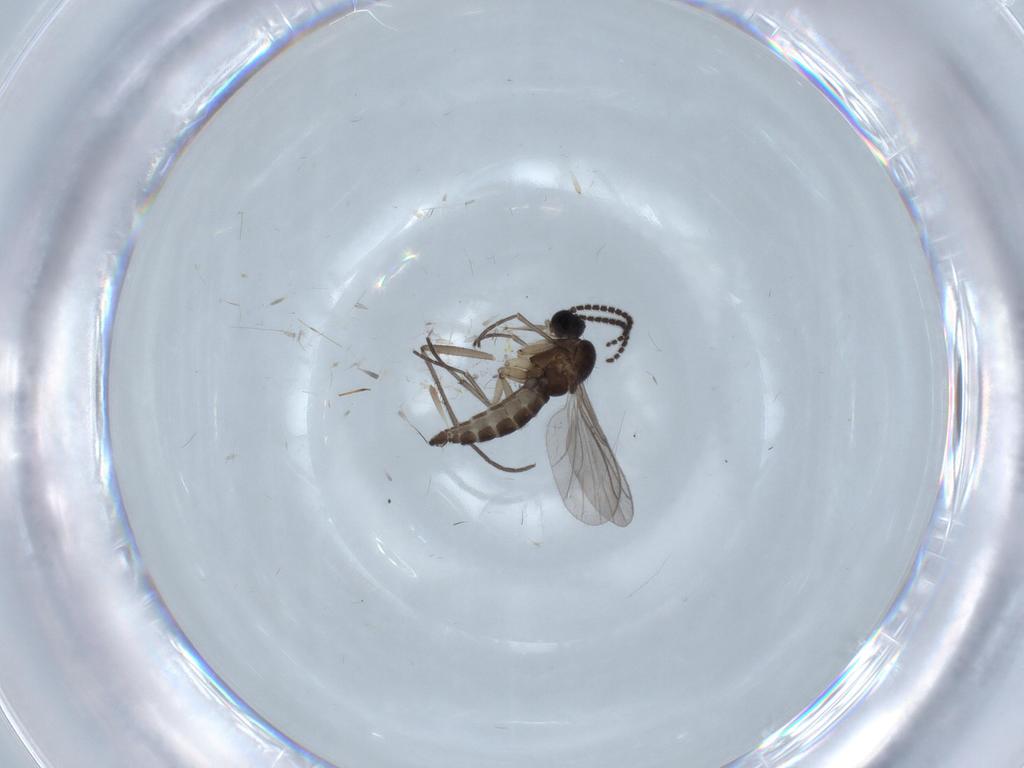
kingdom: Animalia
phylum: Arthropoda
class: Insecta
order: Diptera
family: Sciaridae
